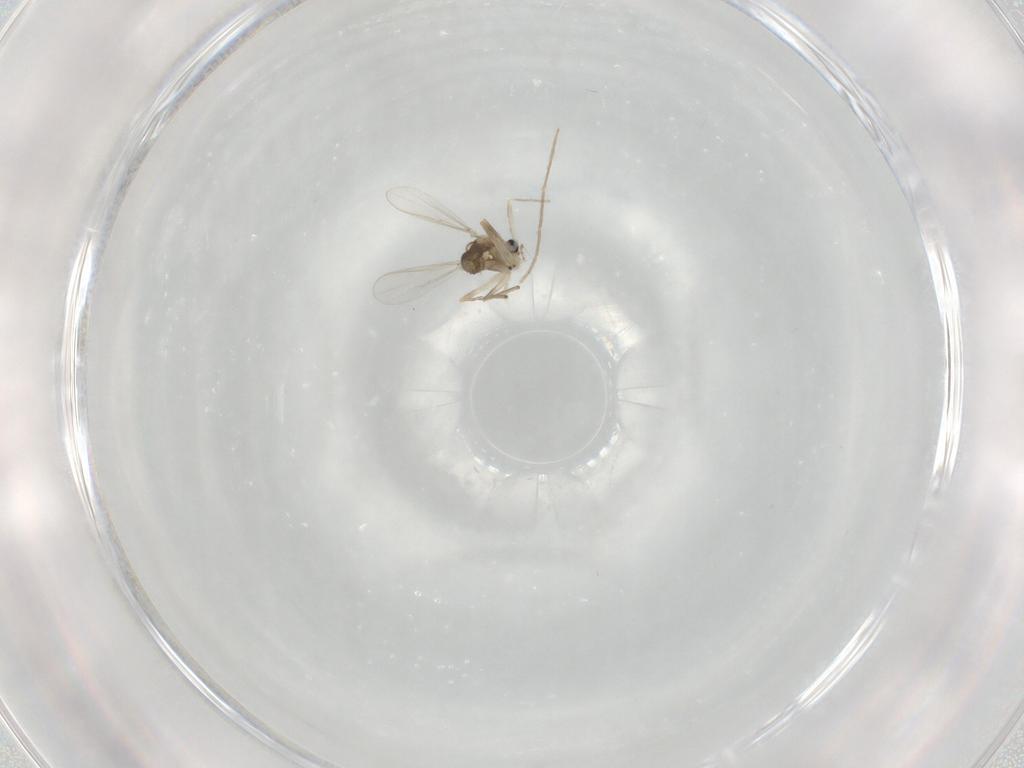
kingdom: Animalia
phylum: Arthropoda
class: Insecta
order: Diptera
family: Chironomidae
